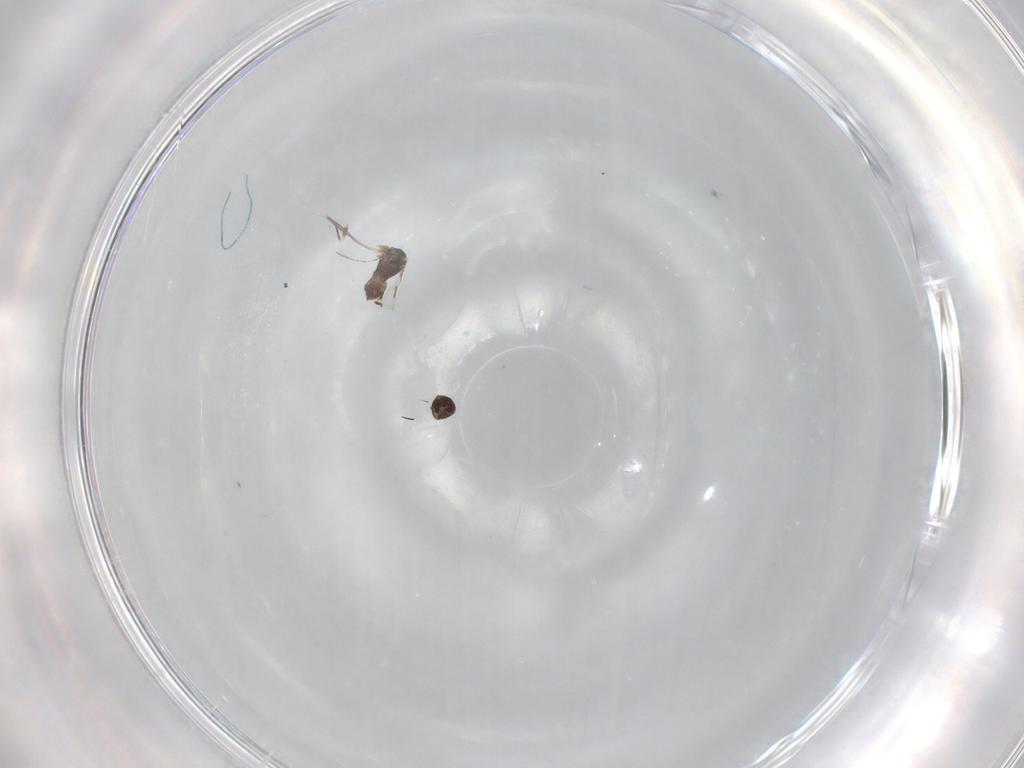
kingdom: Animalia
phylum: Arthropoda
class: Insecta
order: Hymenoptera
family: Mymaridae
